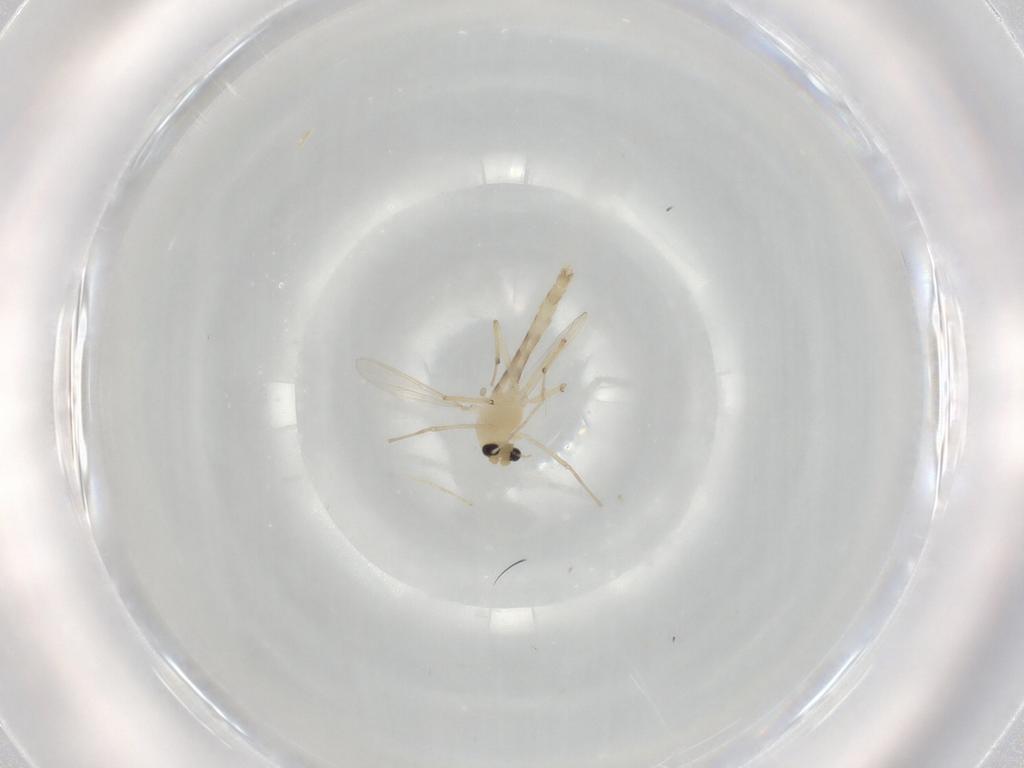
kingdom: Animalia
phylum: Arthropoda
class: Insecta
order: Diptera
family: Chironomidae
